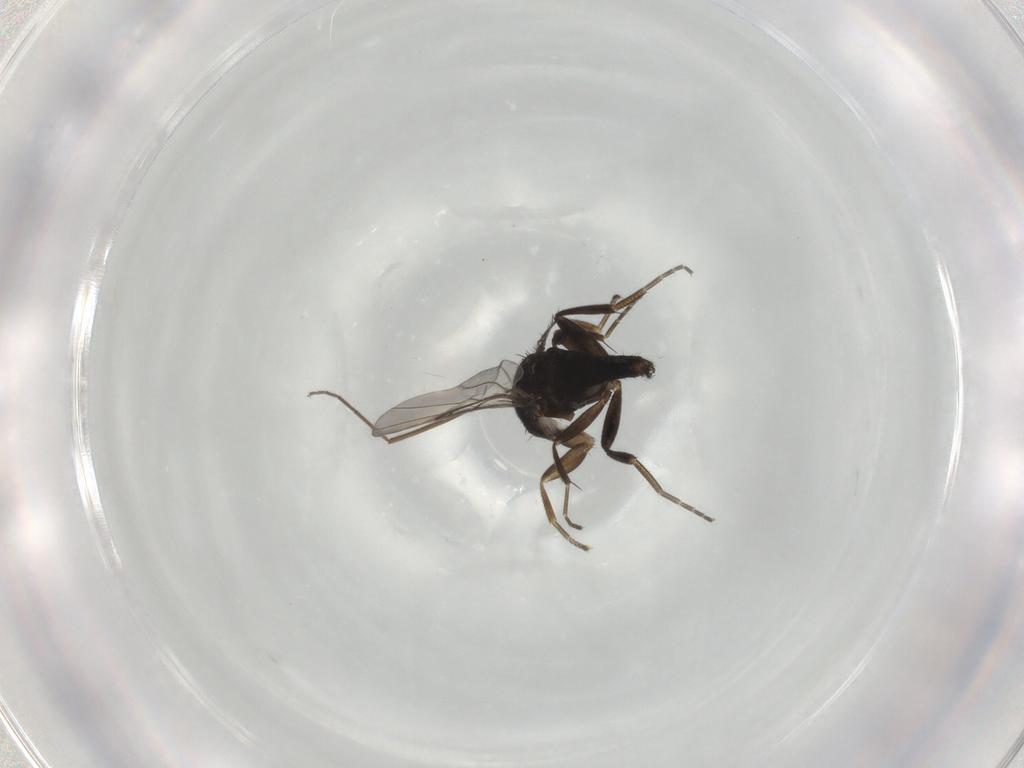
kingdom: Animalia
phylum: Arthropoda
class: Insecta
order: Diptera
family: Phoridae
